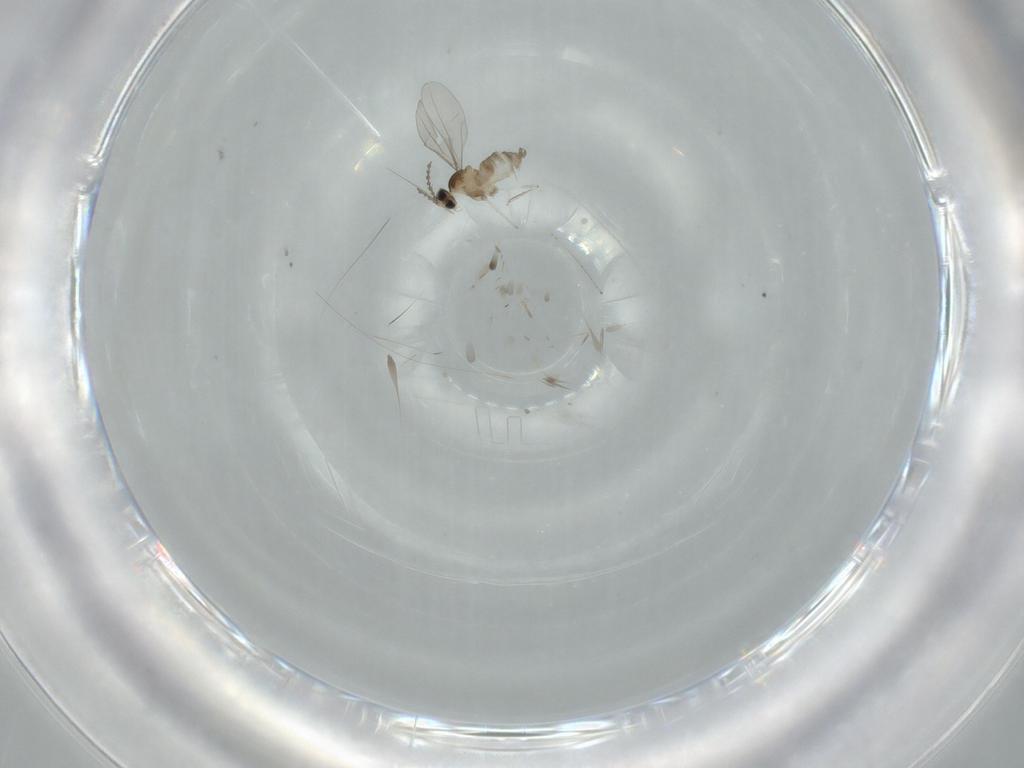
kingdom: Animalia
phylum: Arthropoda
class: Insecta
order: Diptera
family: Cecidomyiidae
